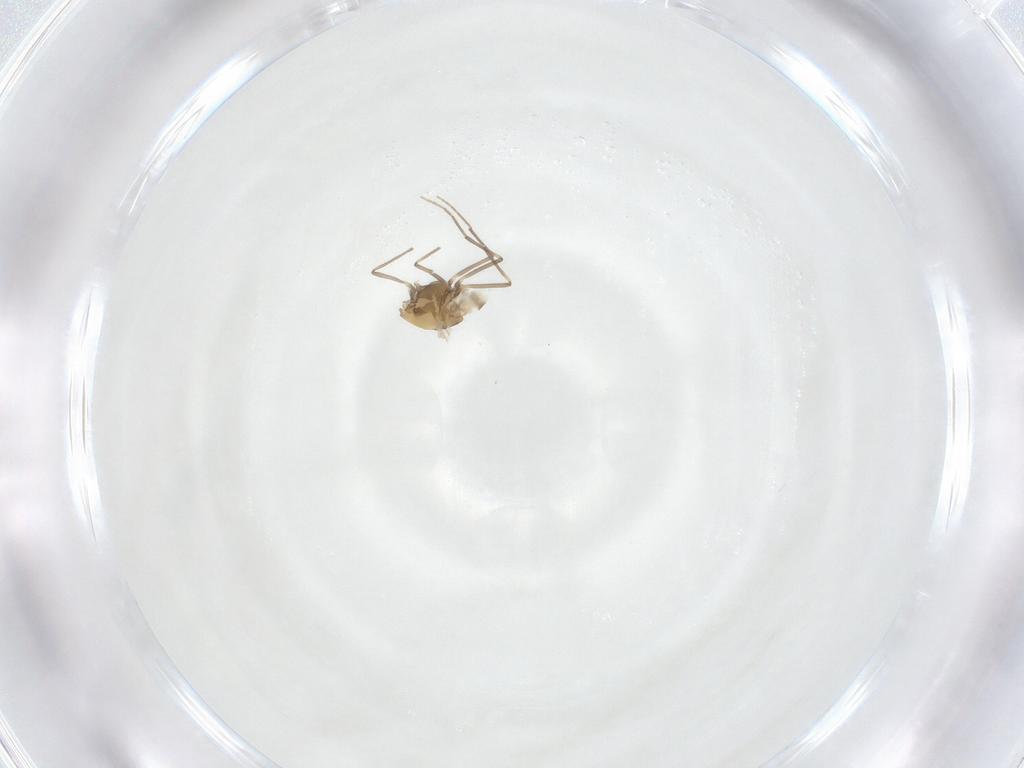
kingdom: Animalia
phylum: Arthropoda
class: Insecta
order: Diptera
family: Chironomidae
